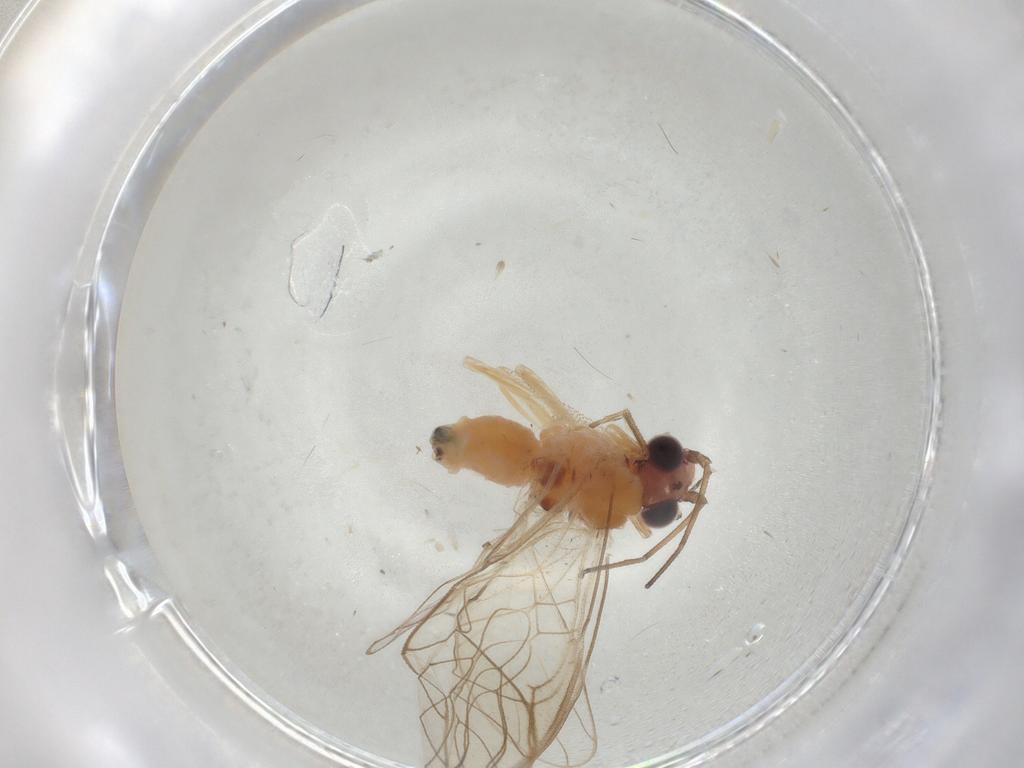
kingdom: Animalia
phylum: Arthropoda
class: Insecta
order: Psocodea
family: Amphipsocidae
